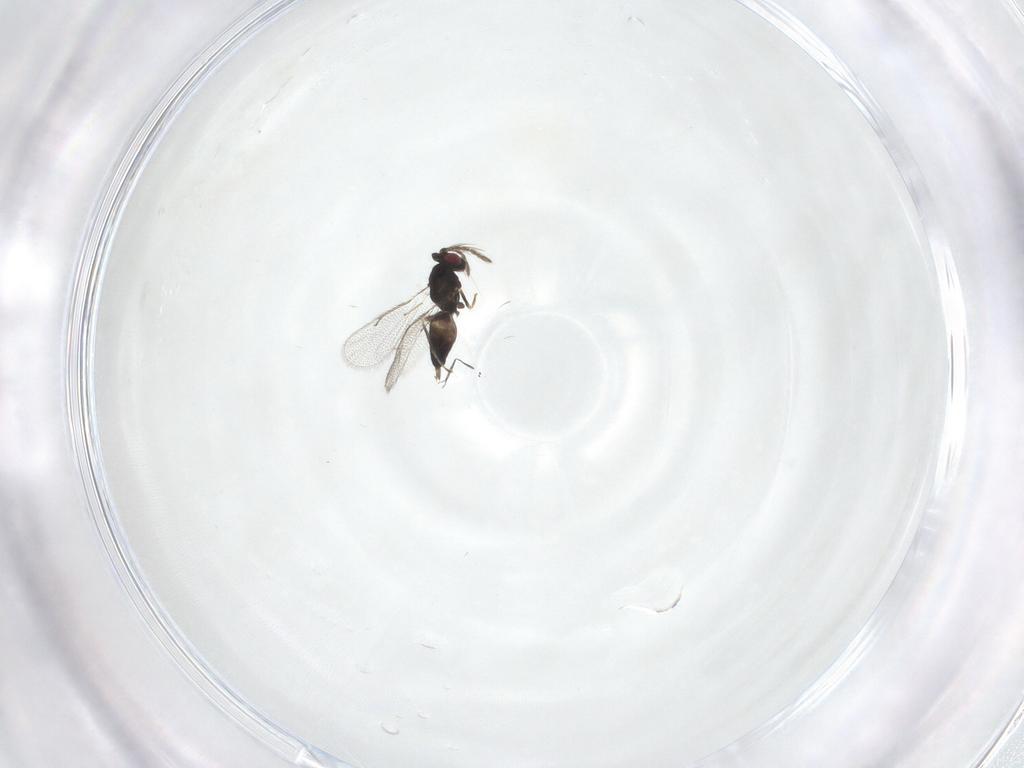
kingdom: Animalia
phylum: Arthropoda
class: Insecta
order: Hymenoptera
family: Eulophidae
